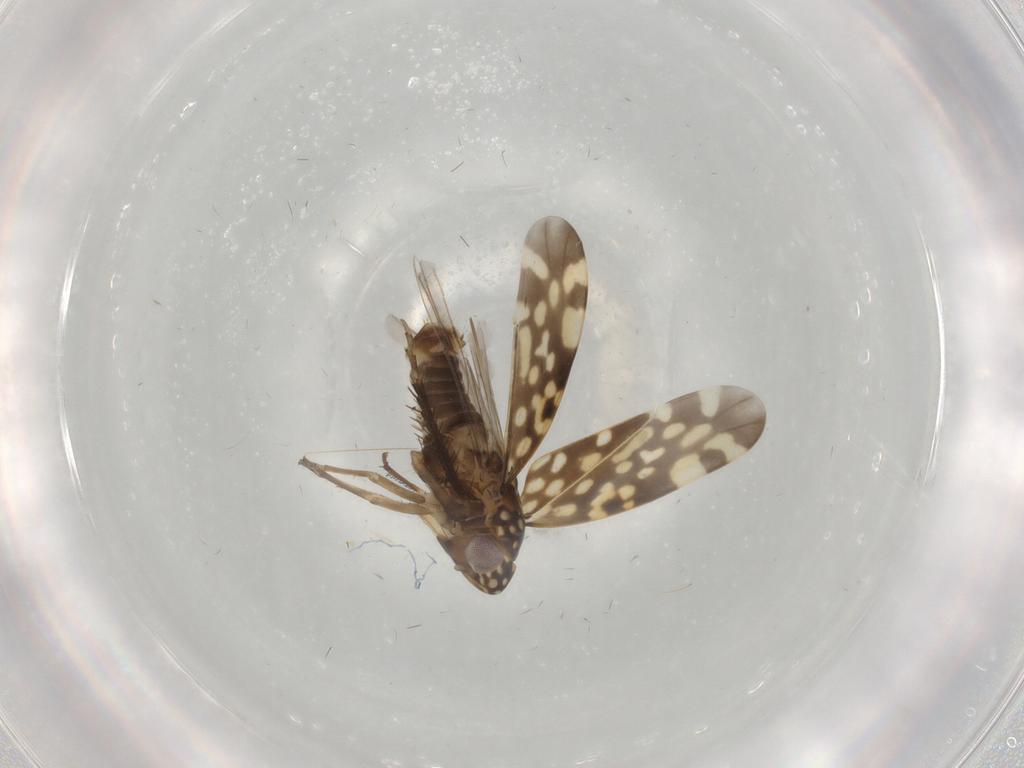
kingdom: Animalia
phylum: Arthropoda
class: Insecta
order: Hemiptera
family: Cicadellidae
